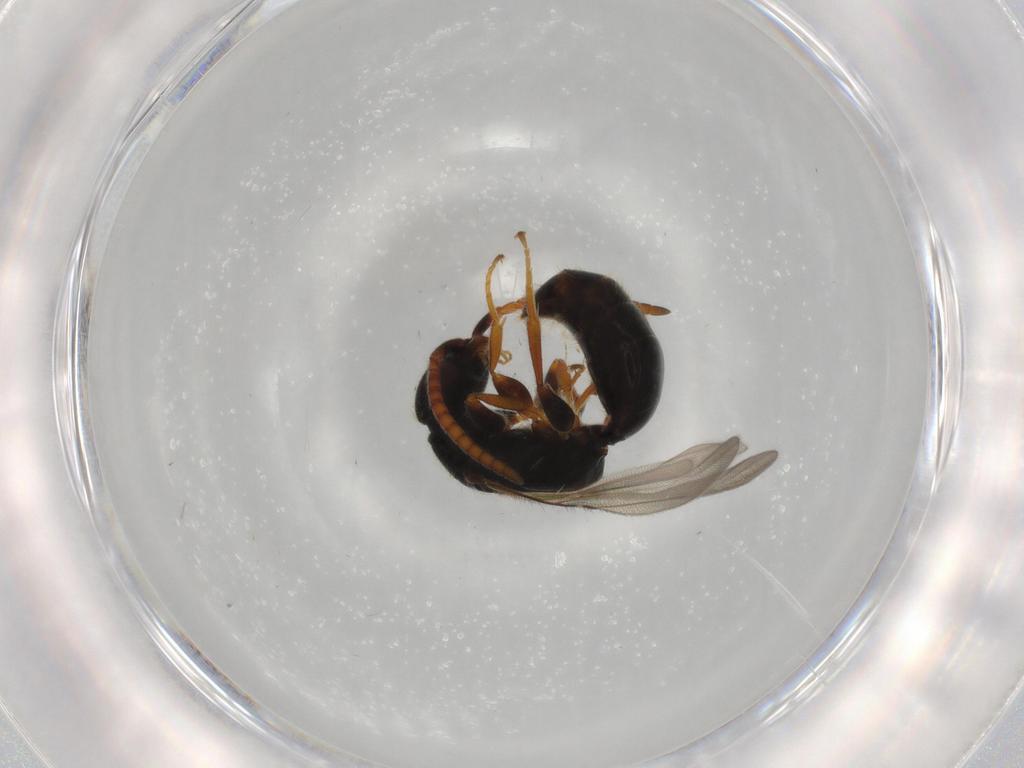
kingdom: Animalia
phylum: Arthropoda
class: Insecta
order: Hymenoptera
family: Bethylidae
